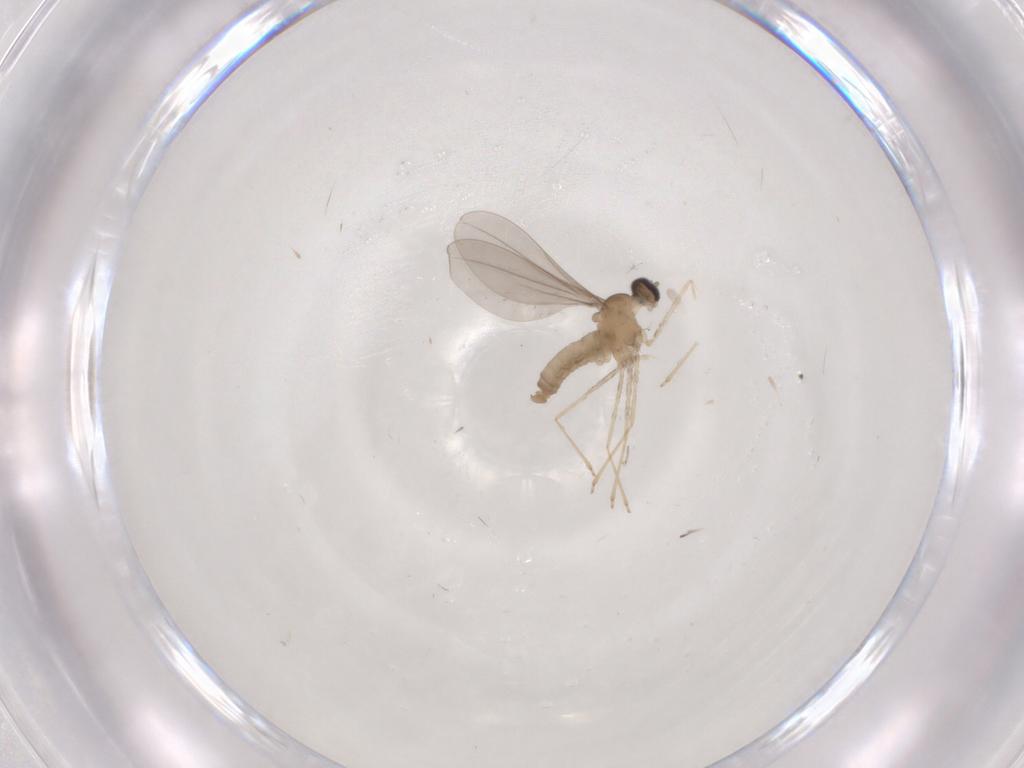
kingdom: Animalia
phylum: Arthropoda
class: Insecta
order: Diptera
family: Cecidomyiidae
